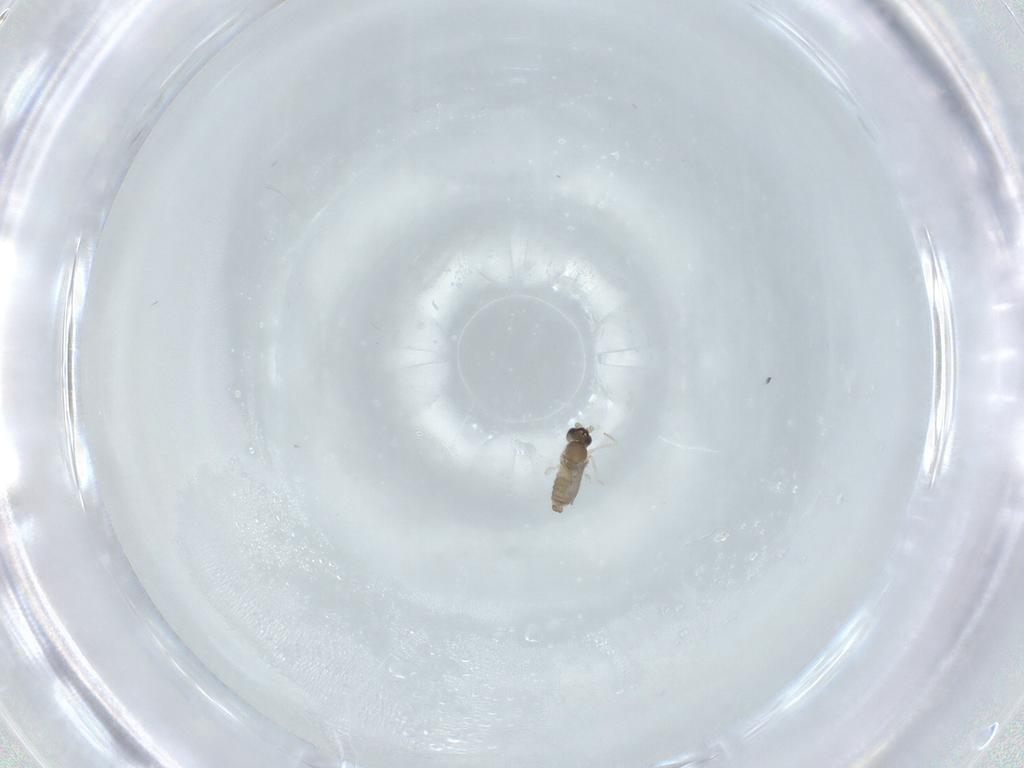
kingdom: Animalia
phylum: Arthropoda
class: Insecta
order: Diptera
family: Cecidomyiidae
